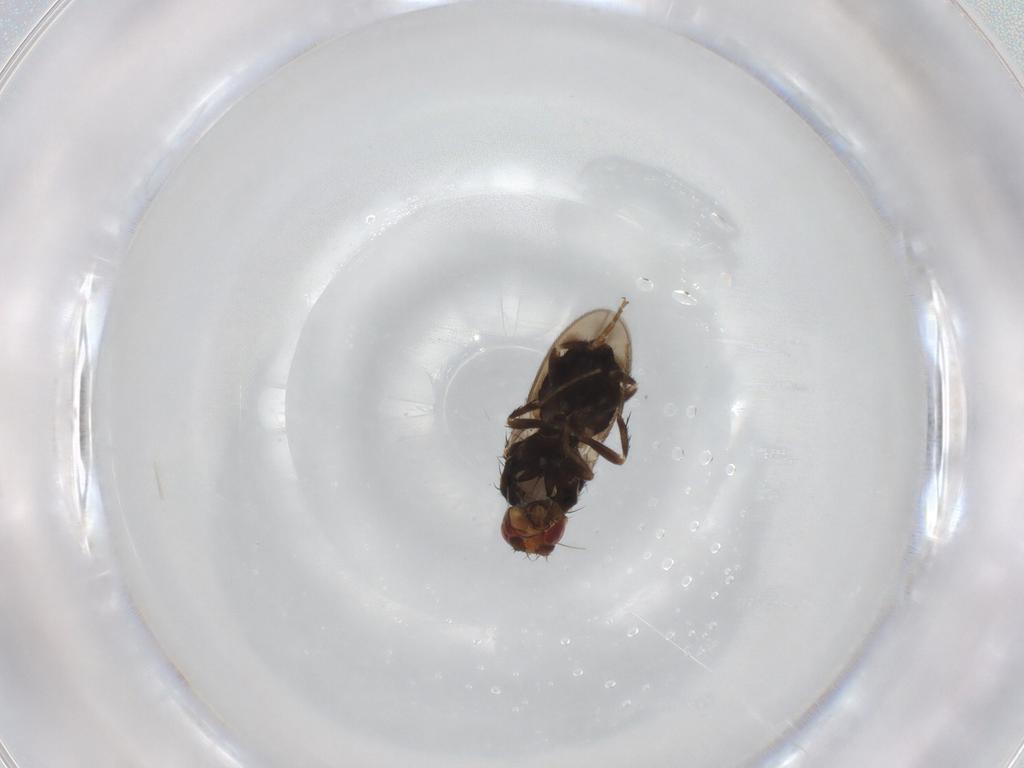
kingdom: Animalia
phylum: Arthropoda
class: Insecta
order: Diptera
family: Sphaeroceridae
